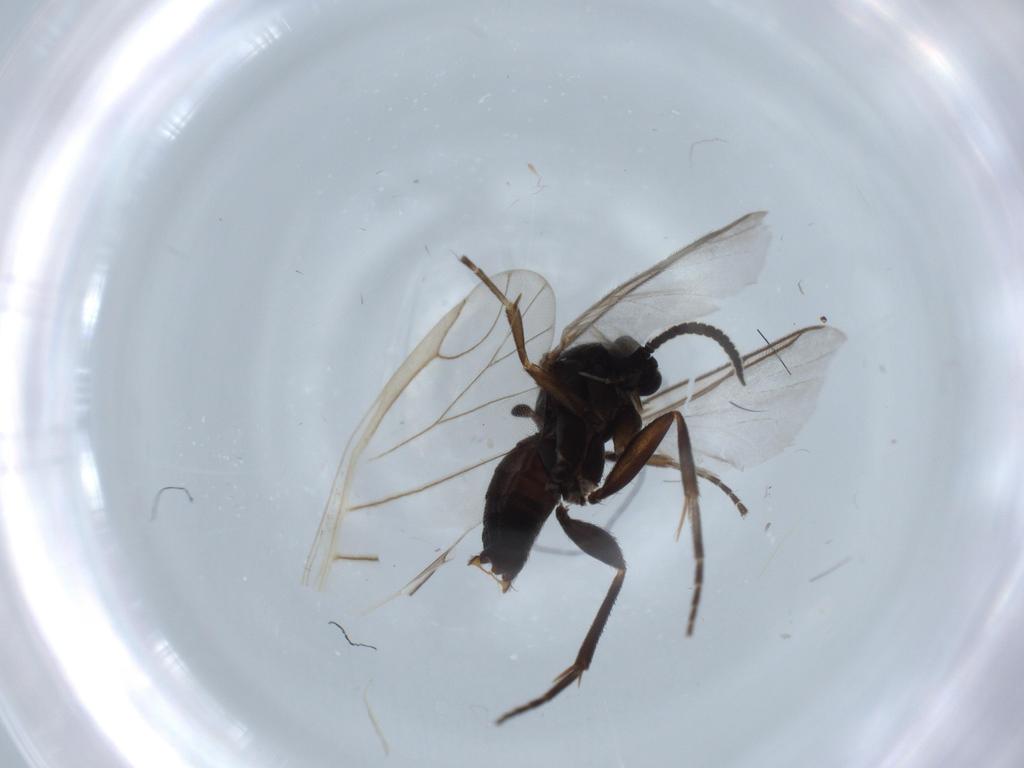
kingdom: Animalia
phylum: Arthropoda
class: Insecta
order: Diptera
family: Mycetophilidae
